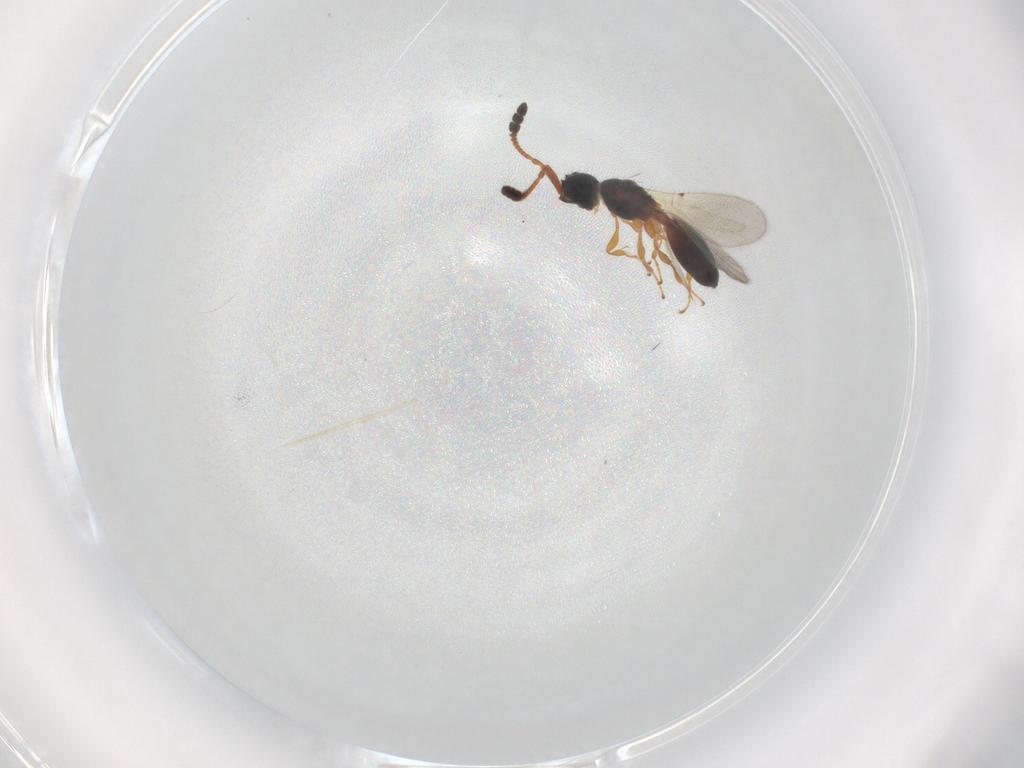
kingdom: Animalia
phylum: Arthropoda
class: Insecta
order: Hymenoptera
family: Diapriidae
